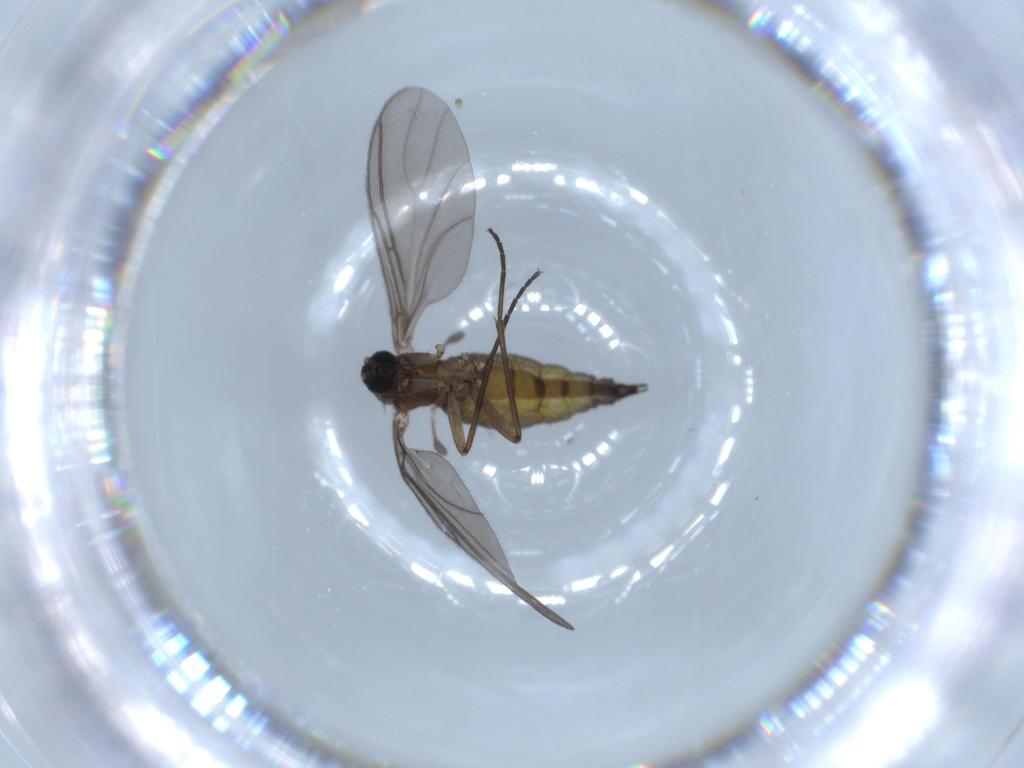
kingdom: Animalia
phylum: Arthropoda
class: Insecta
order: Diptera
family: Sciaridae
